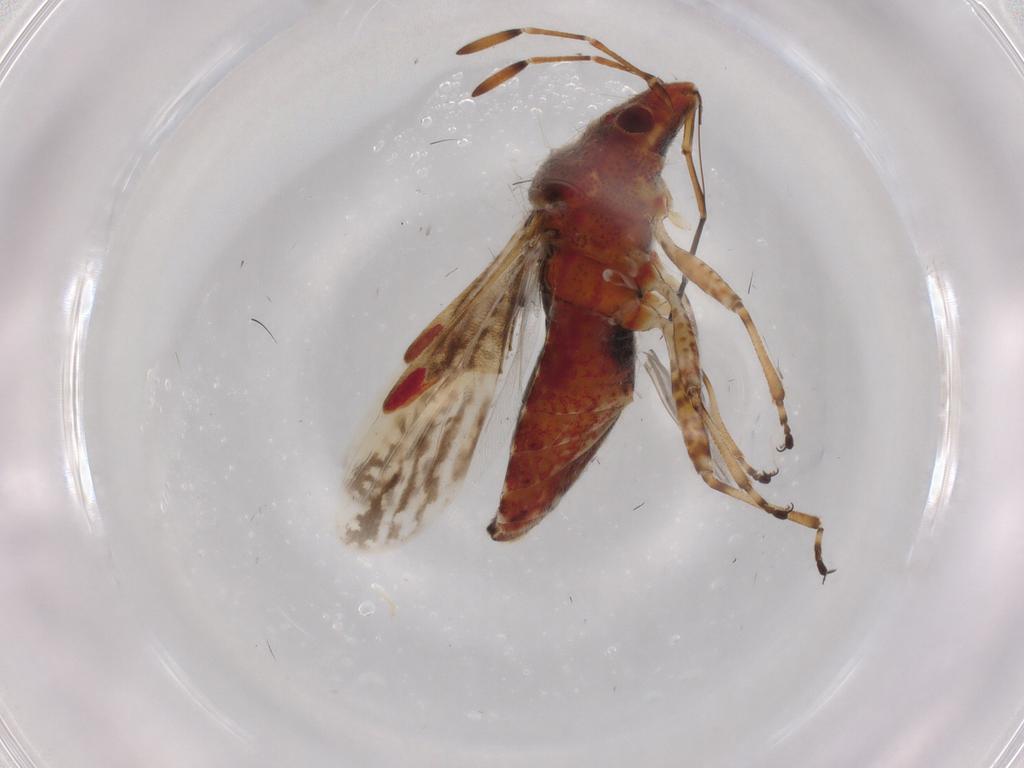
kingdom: Animalia
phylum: Arthropoda
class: Insecta
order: Hemiptera
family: Lygaeidae
